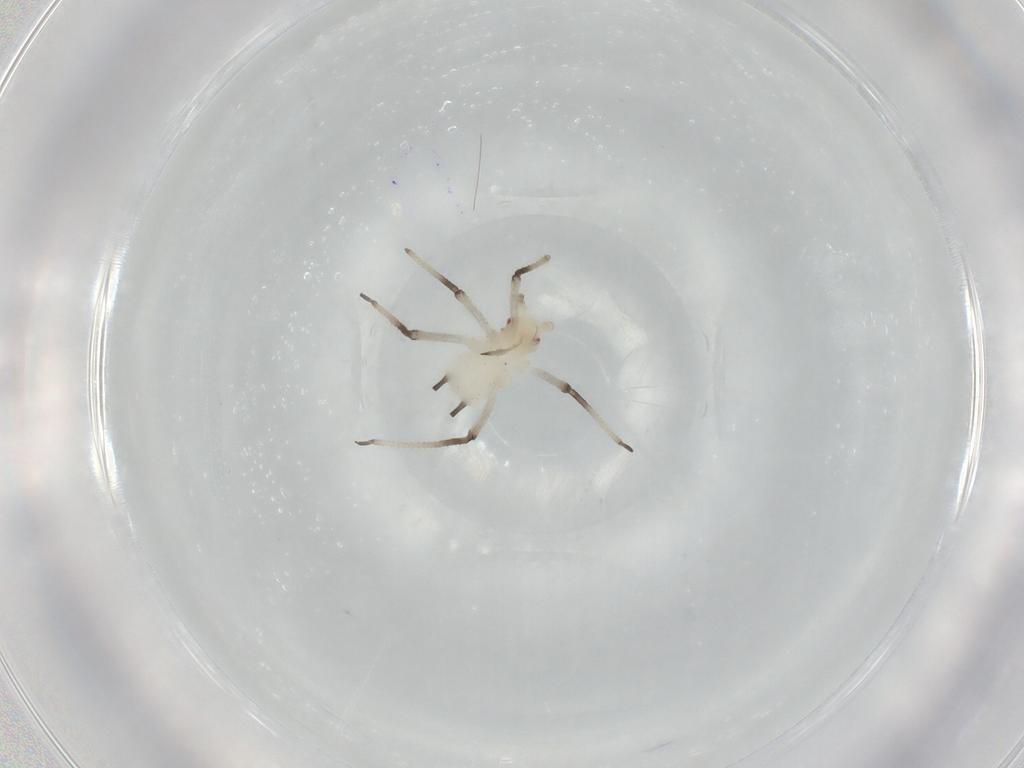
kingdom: Animalia
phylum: Arthropoda
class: Insecta
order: Hemiptera
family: Aphididae
